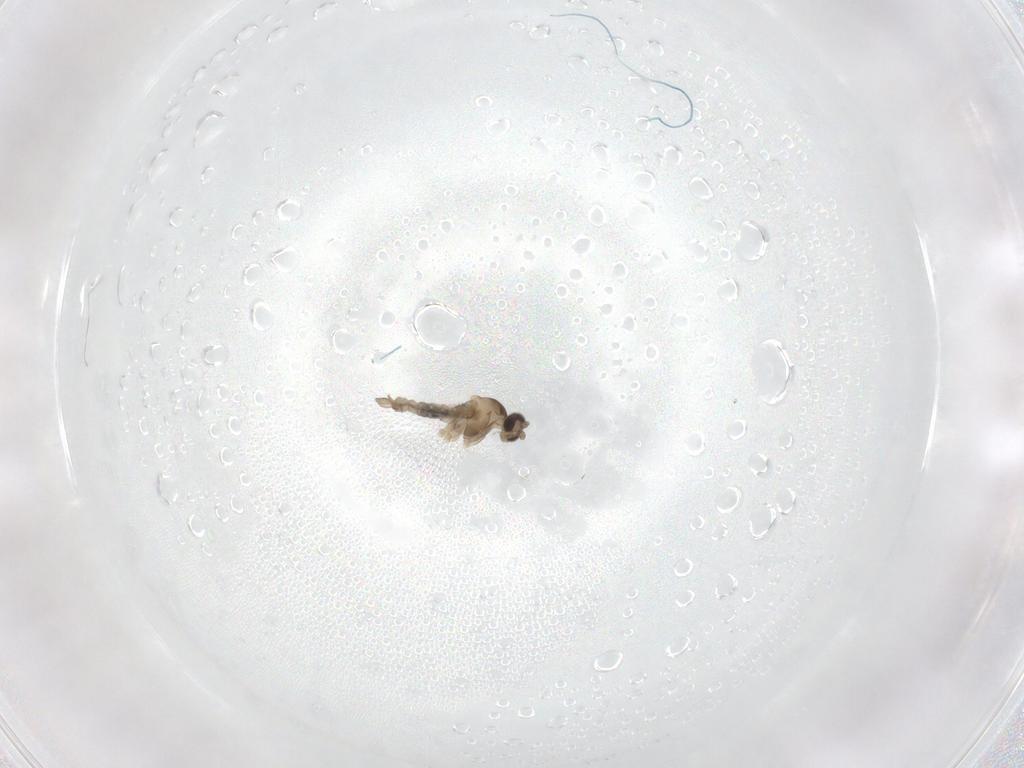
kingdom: Animalia
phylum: Arthropoda
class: Insecta
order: Diptera
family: Cecidomyiidae
